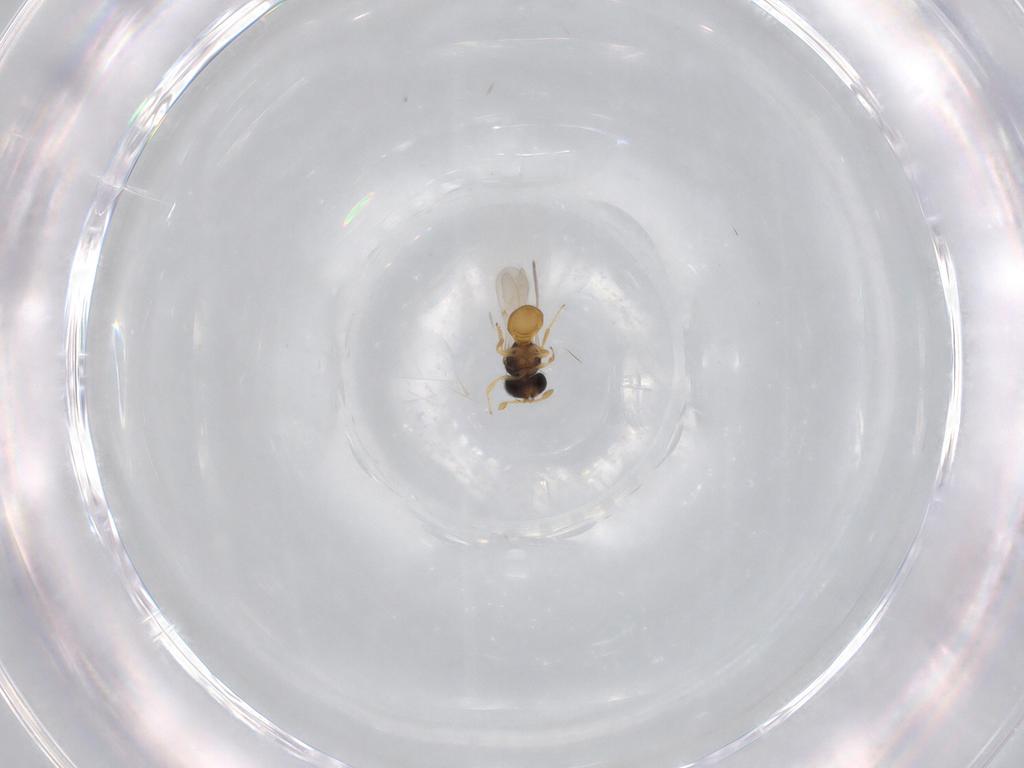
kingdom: Animalia
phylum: Arthropoda
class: Insecta
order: Hymenoptera
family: Scelionidae
